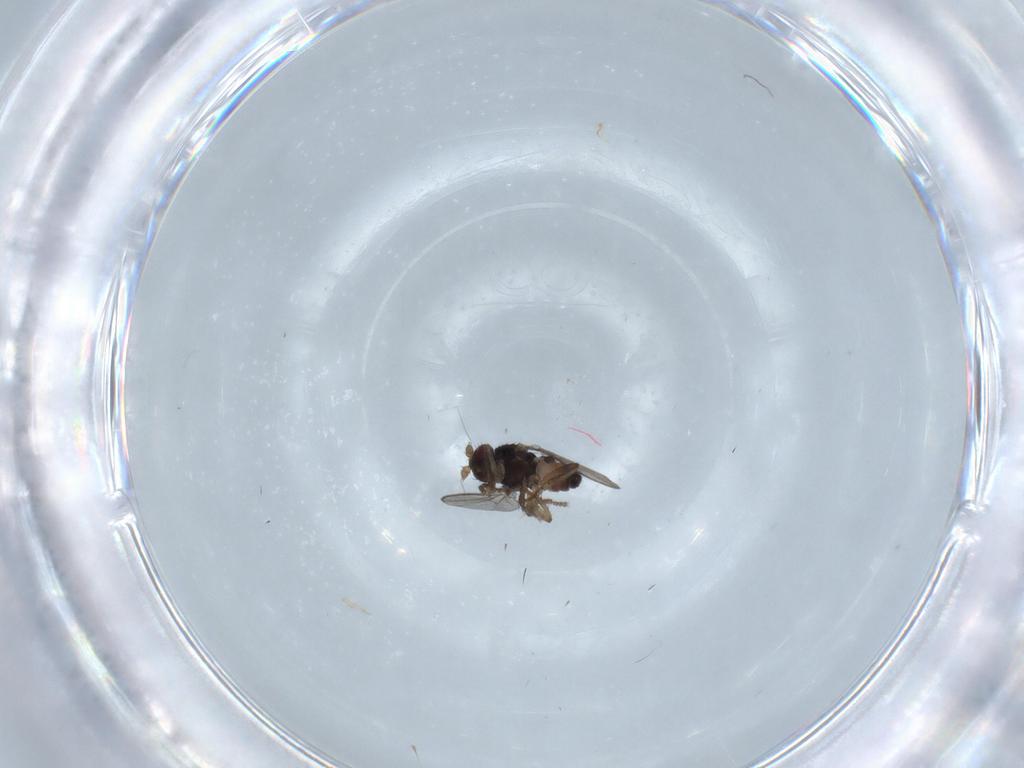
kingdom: Animalia
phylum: Arthropoda
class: Insecta
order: Diptera
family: Sphaeroceridae
